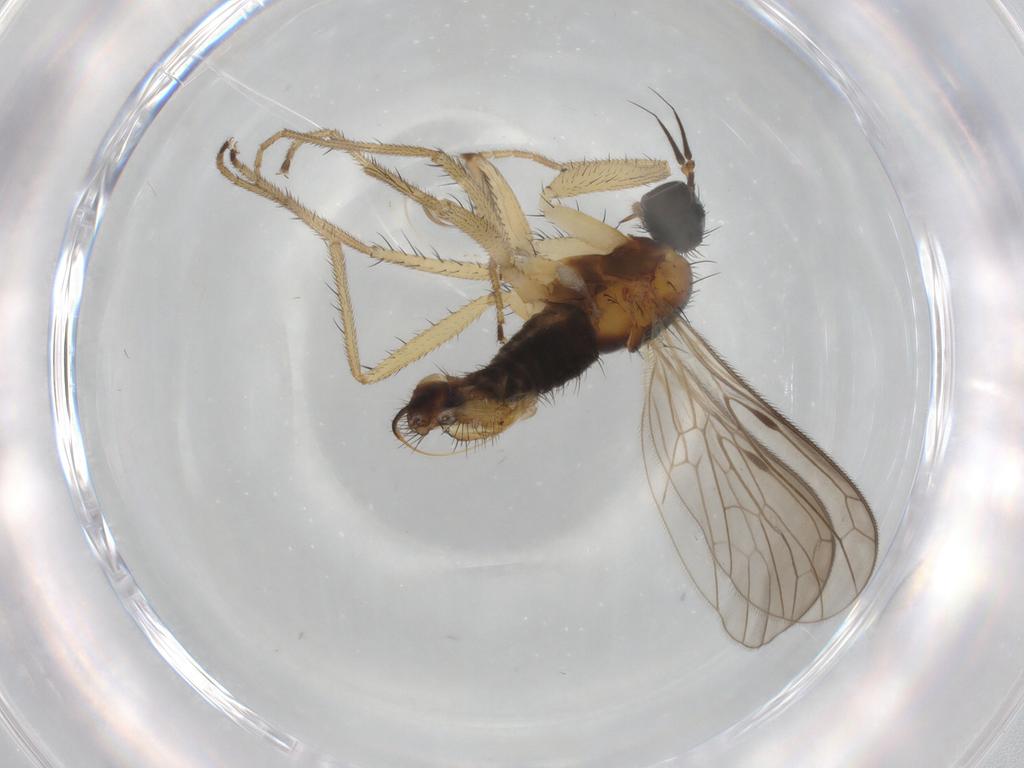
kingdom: Animalia
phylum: Arthropoda
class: Insecta
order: Diptera
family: Empididae
